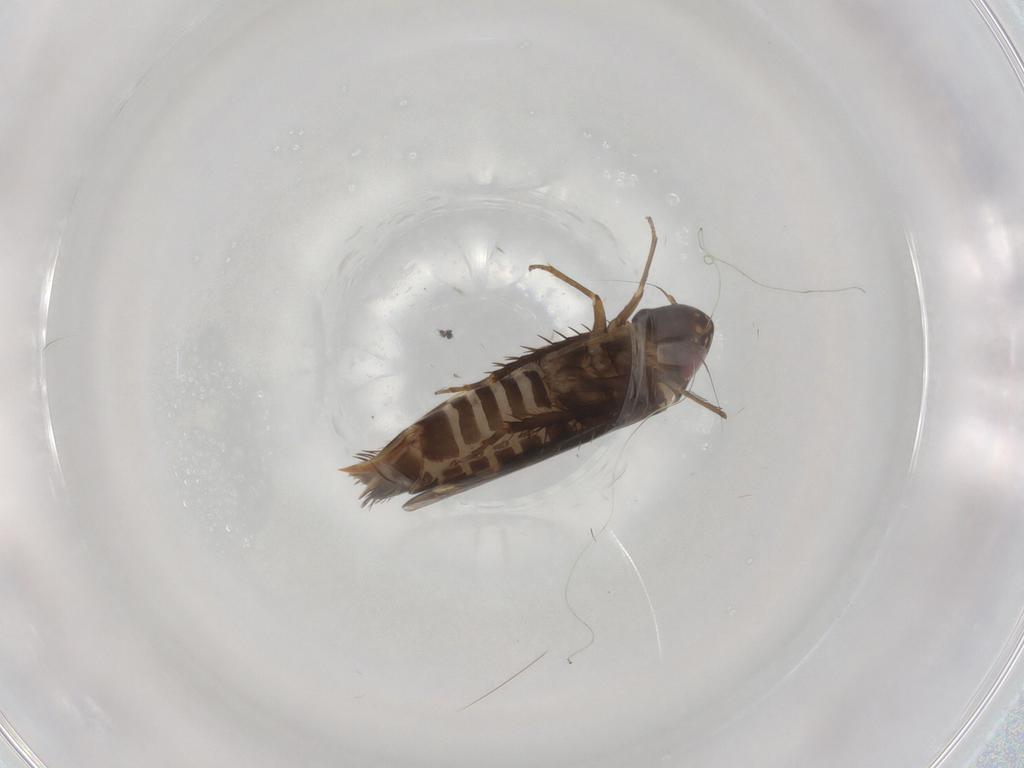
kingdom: Animalia
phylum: Arthropoda
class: Insecta
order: Hemiptera
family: Cicadellidae
